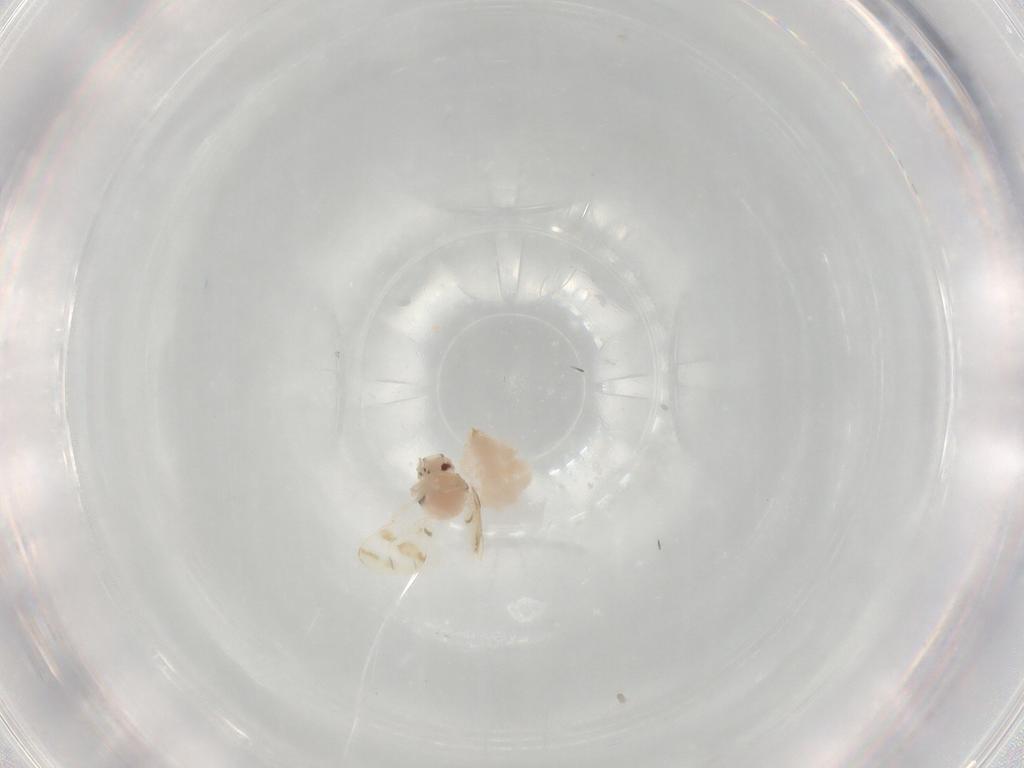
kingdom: Animalia
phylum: Arthropoda
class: Insecta
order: Hemiptera
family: Aleyrodidae
